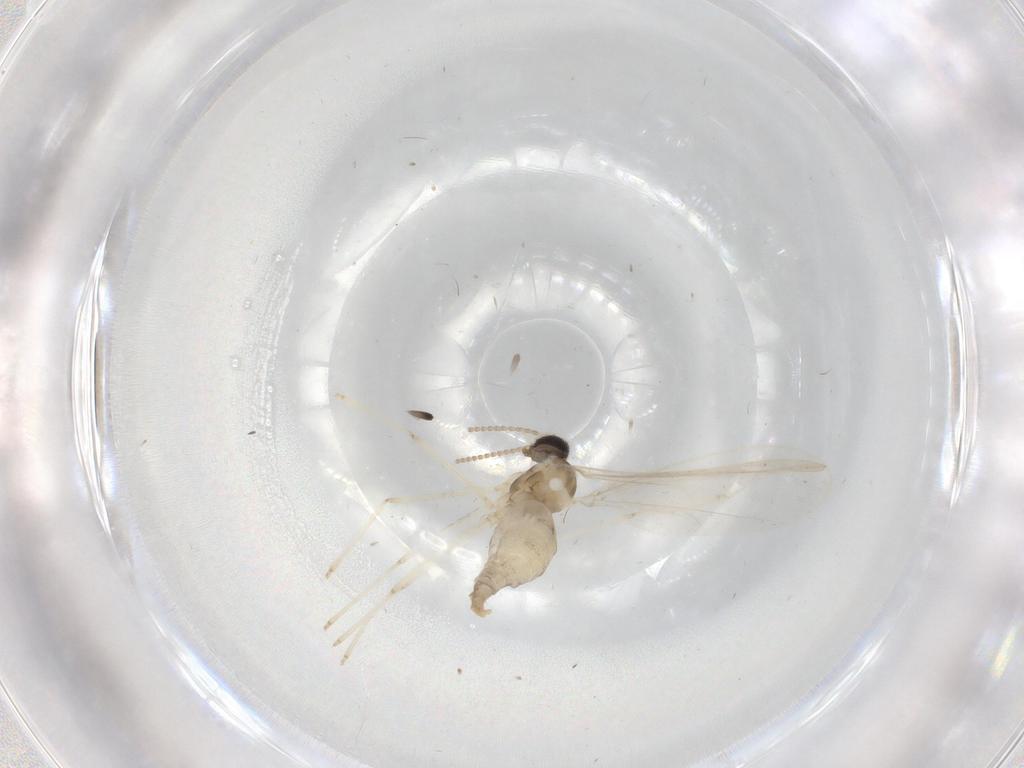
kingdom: Animalia
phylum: Arthropoda
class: Insecta
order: Diptera
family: Cecidomyiidae
